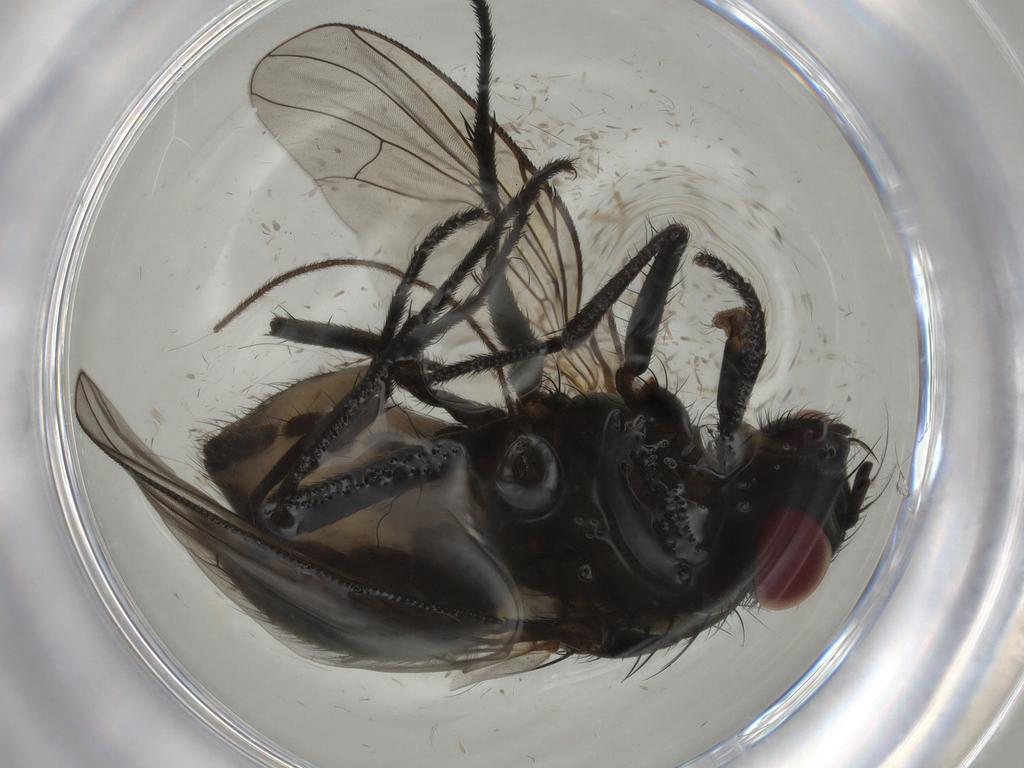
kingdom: Animalia
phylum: Arthropoda
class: Insecta
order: Diptera
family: Muscidae
